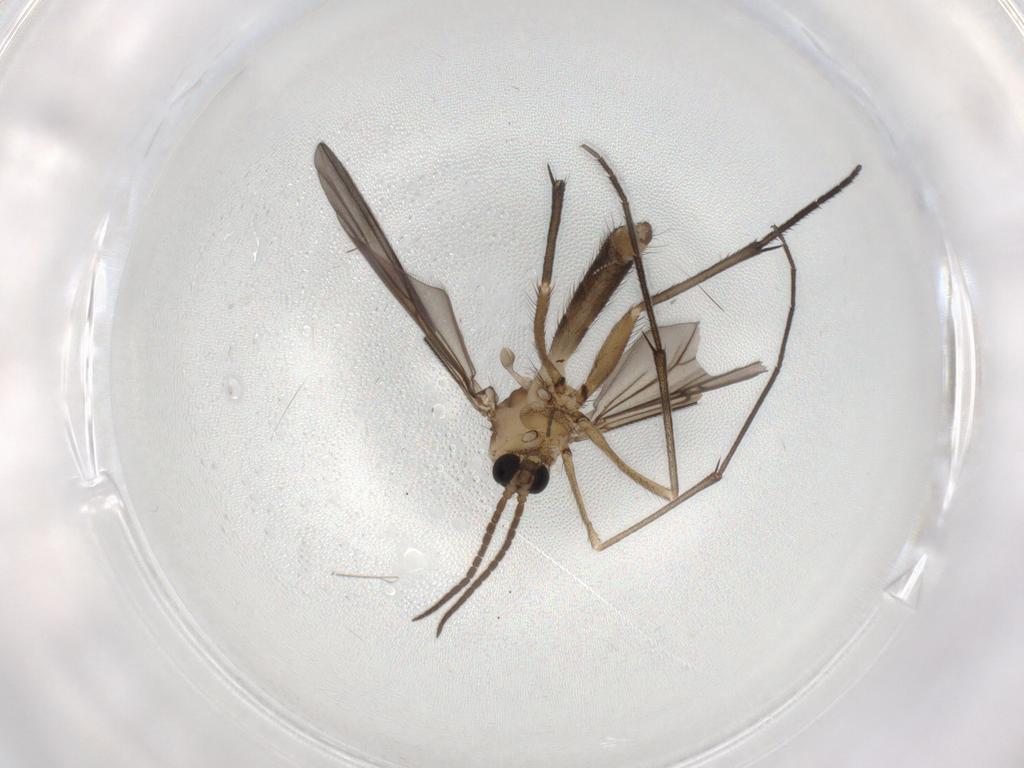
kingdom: Animalia
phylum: Arthropoda
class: Insecta
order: Diptera
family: Mycetophilidae
